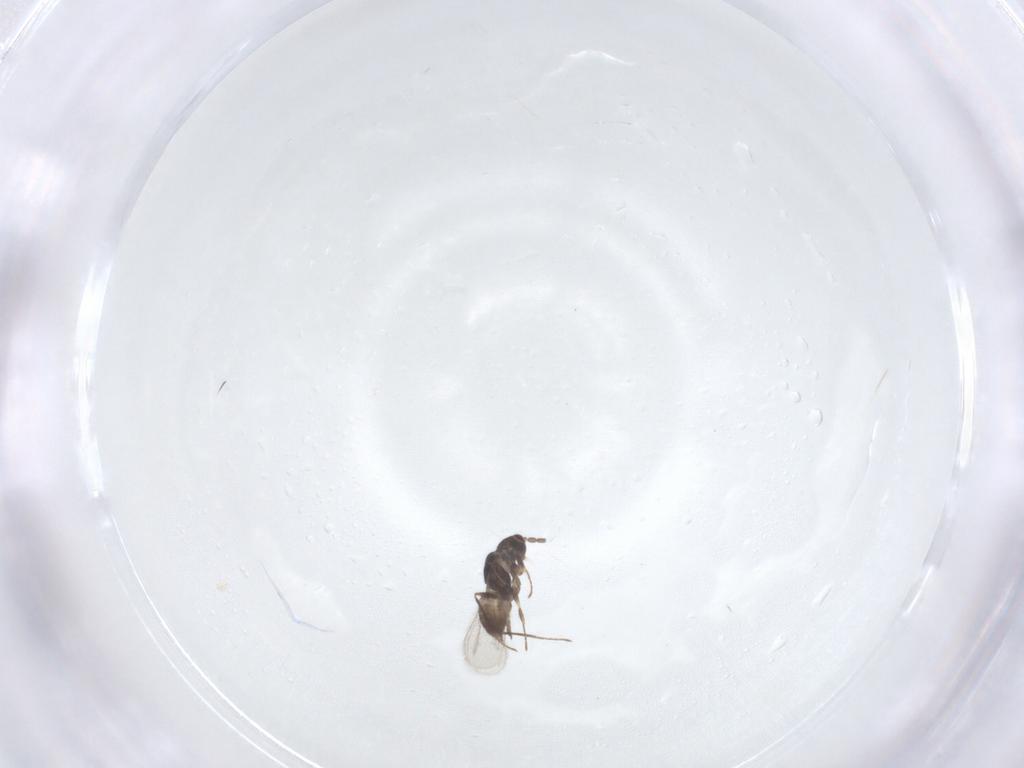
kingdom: Animalia
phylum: Arthropoda
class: Insecta
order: Hymenoptera
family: Mymaridae
